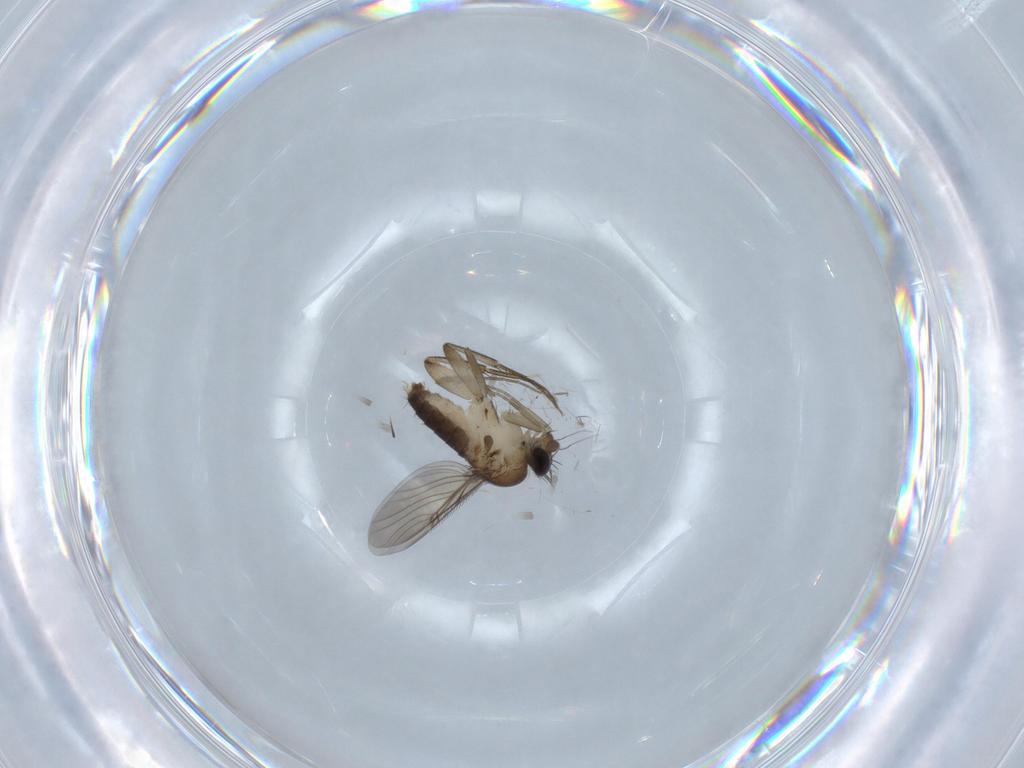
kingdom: Animalia
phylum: Arthropoda
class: Insecta
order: Diptera
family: Phoridae
